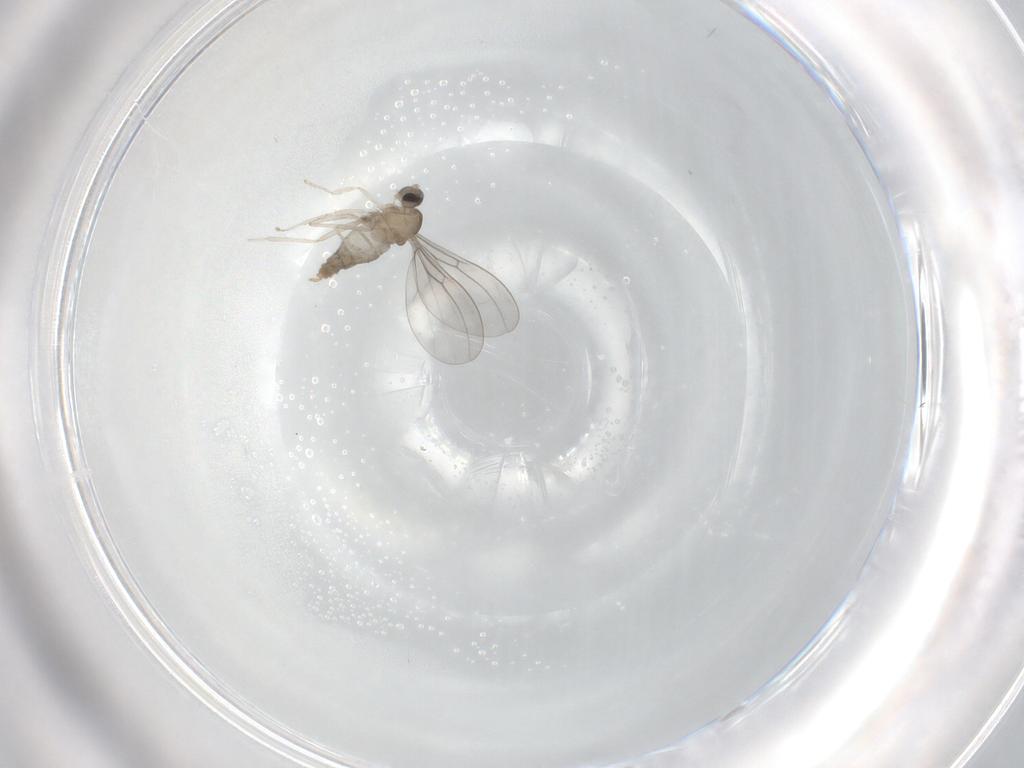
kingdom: Animalia
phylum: Arthropoda
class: Insecta
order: Diptera
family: Cecidomyiidae
